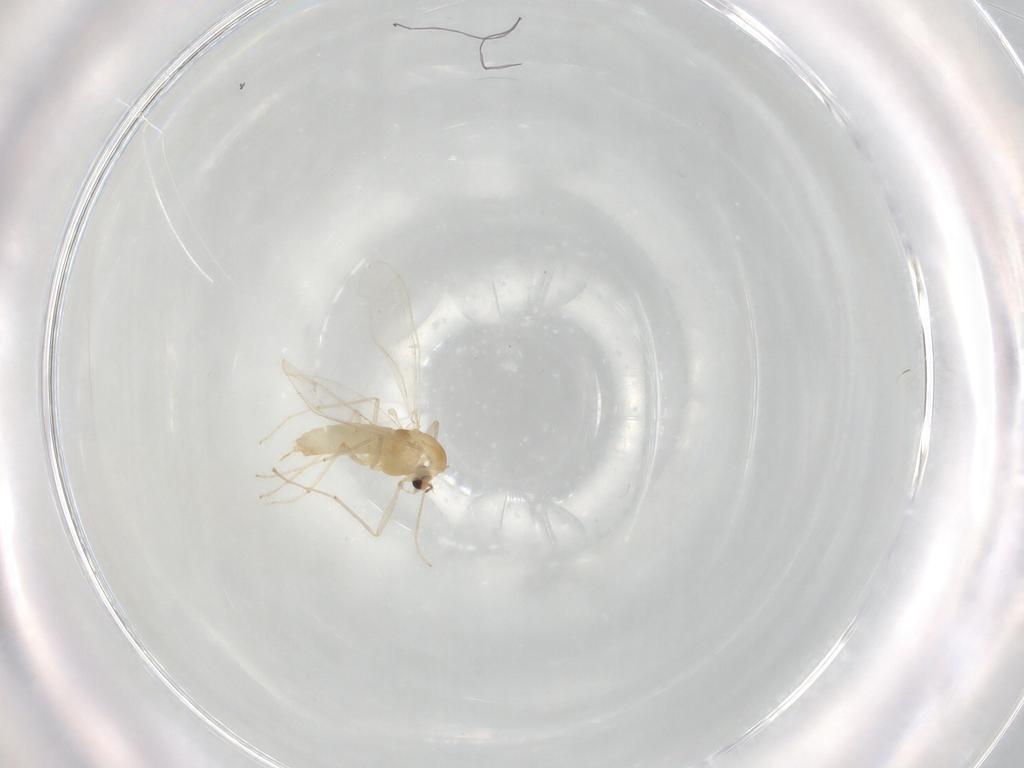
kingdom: Animalia
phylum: Arthropoda
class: Insecta
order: Diptera
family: Chironomidae
